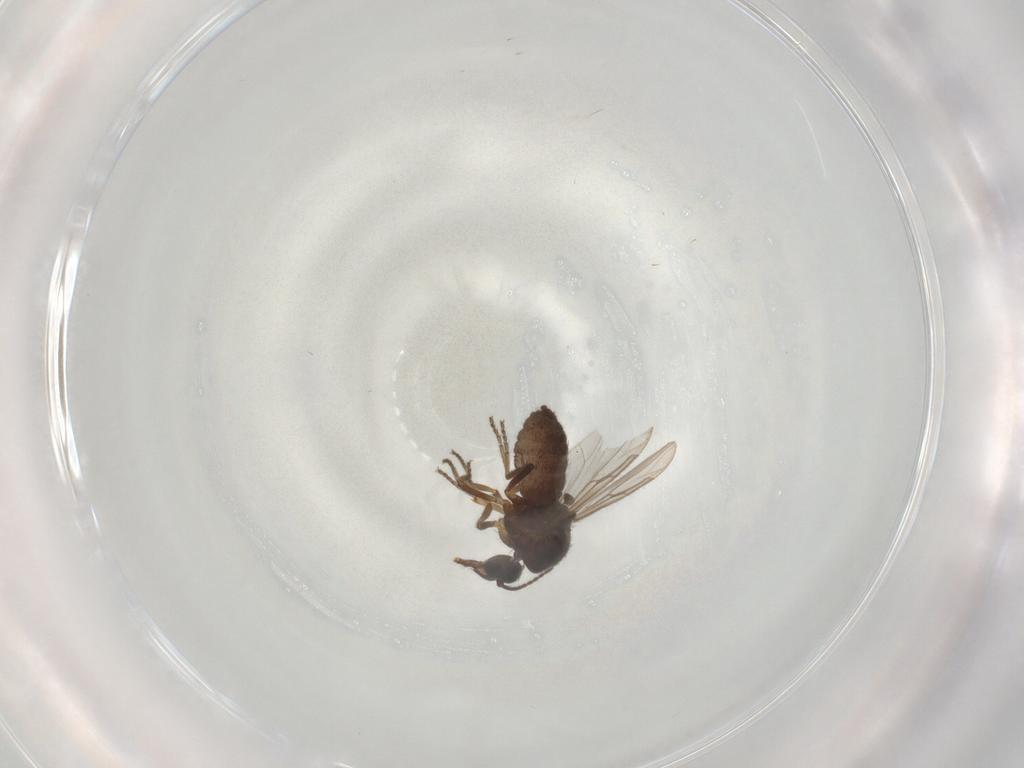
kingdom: Animalia
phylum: Arthropoda
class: Insecta
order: Diptera
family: Ceratopogonidae
